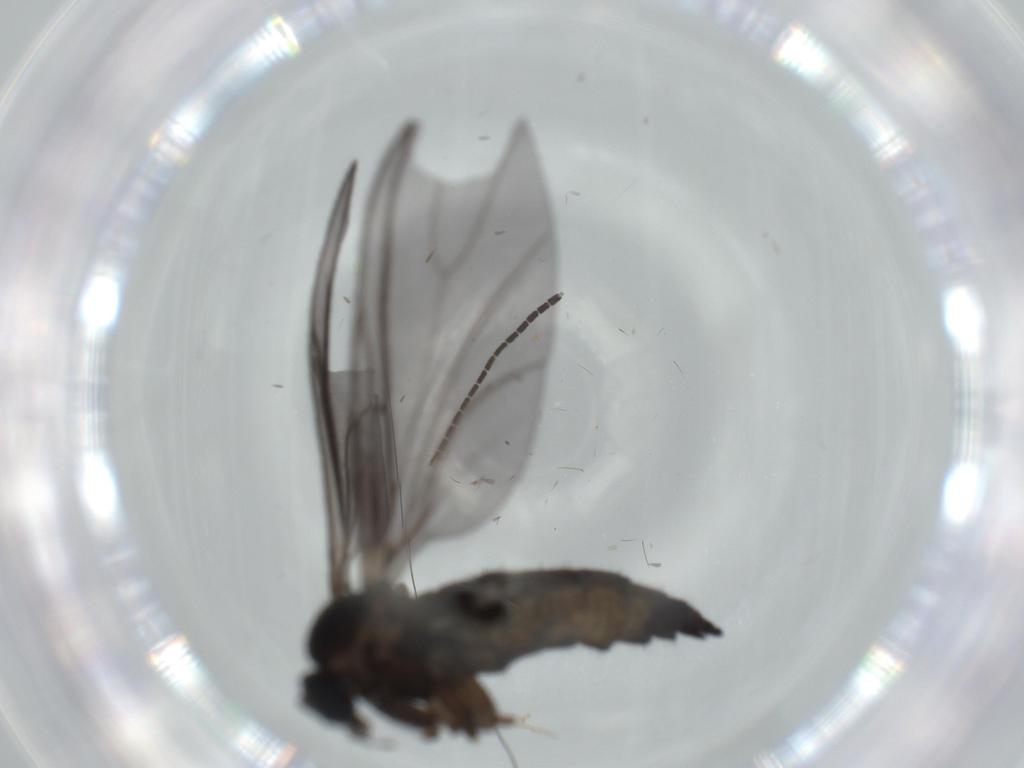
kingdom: Animalia
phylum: Arthropoda
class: Insecta
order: Diptera
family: Sciaridae
